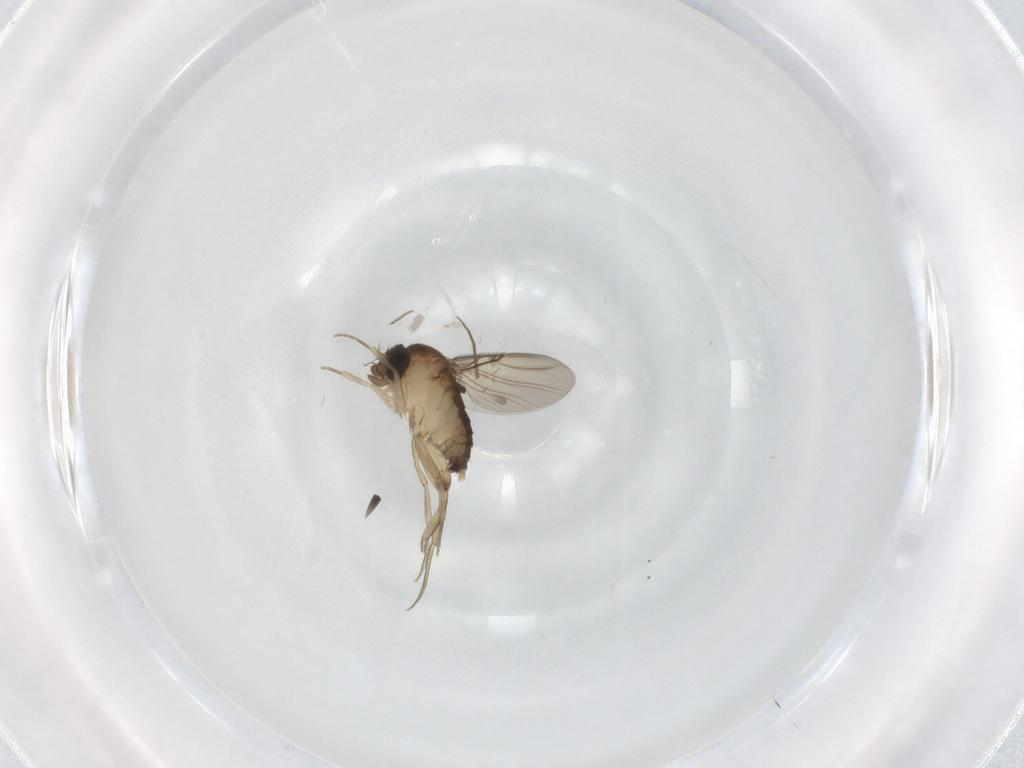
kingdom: Animalia
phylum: Arthropoda
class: Insecta
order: Diptera
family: Phoridae
